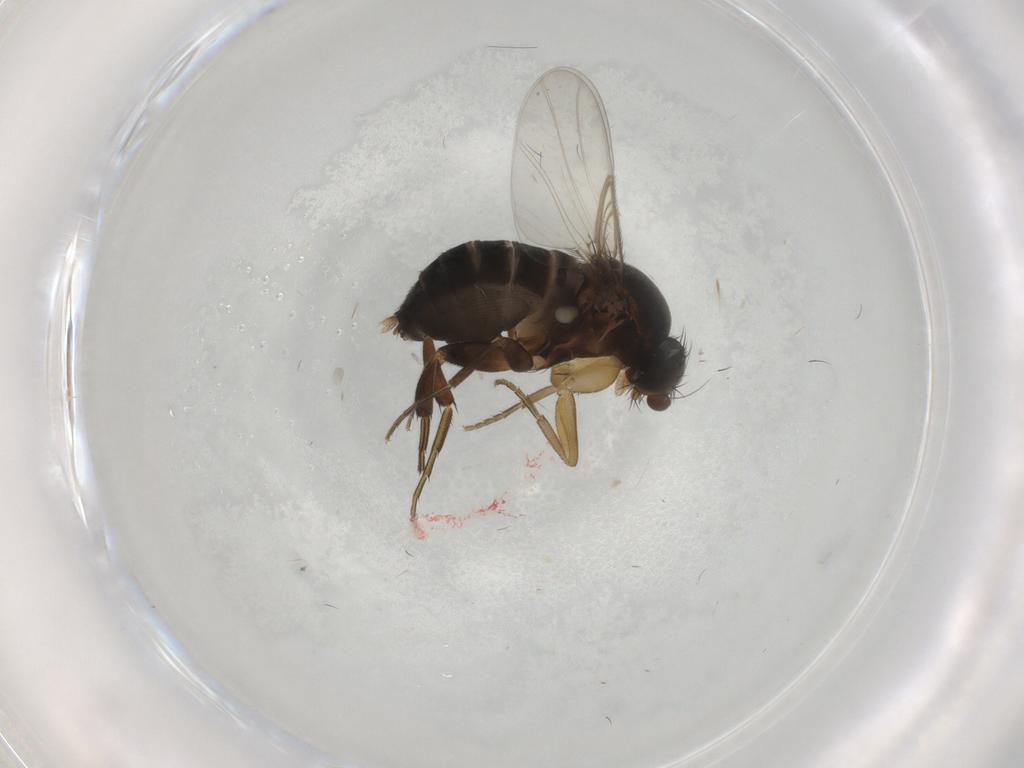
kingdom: Animalia
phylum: Arthropoda
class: Insecta
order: Diptera
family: Phoridae
